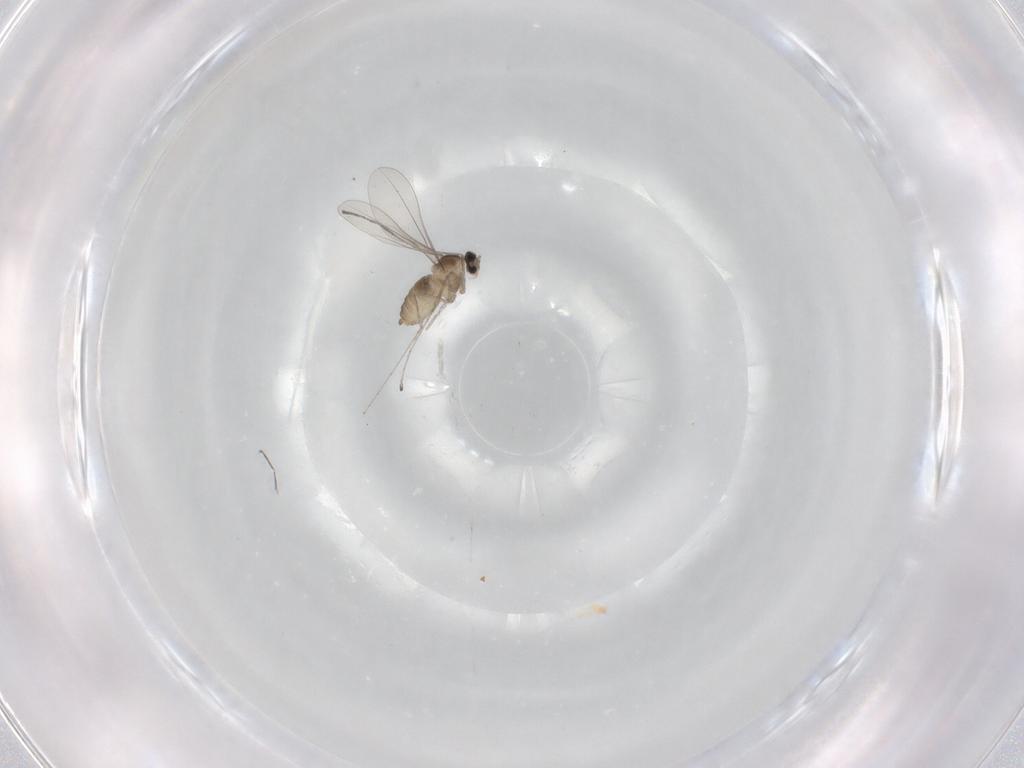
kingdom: Animalia
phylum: Arthropoda
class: Insecta
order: Diptera
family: Cecidomyiidae
